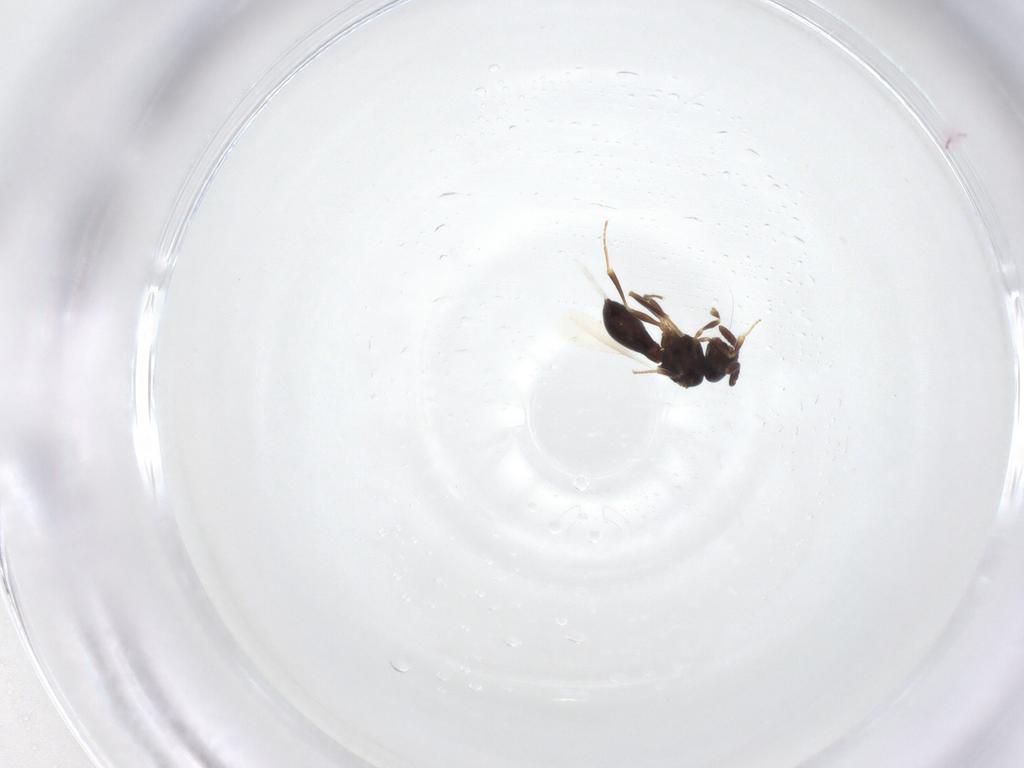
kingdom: Animalia
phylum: Arthropoda
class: Insecta
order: Hymenoptera
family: Scelionidae
